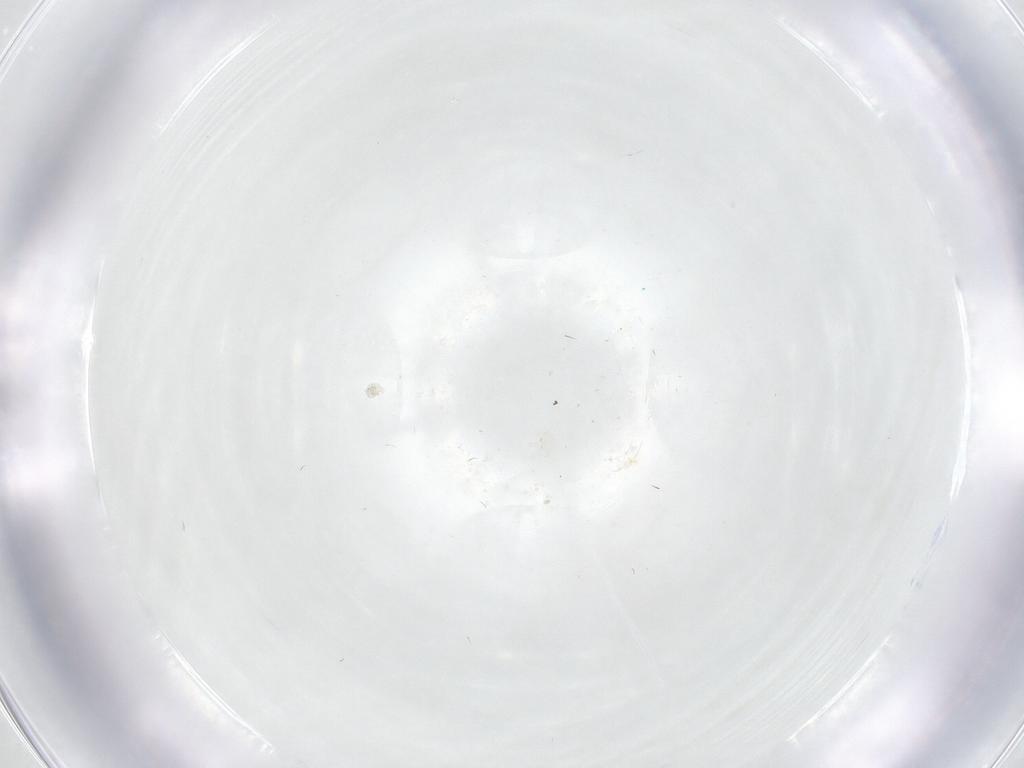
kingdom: Animalia
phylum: Arthropoda
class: Insecta
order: Hymenoptera
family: Tenthredinidae
